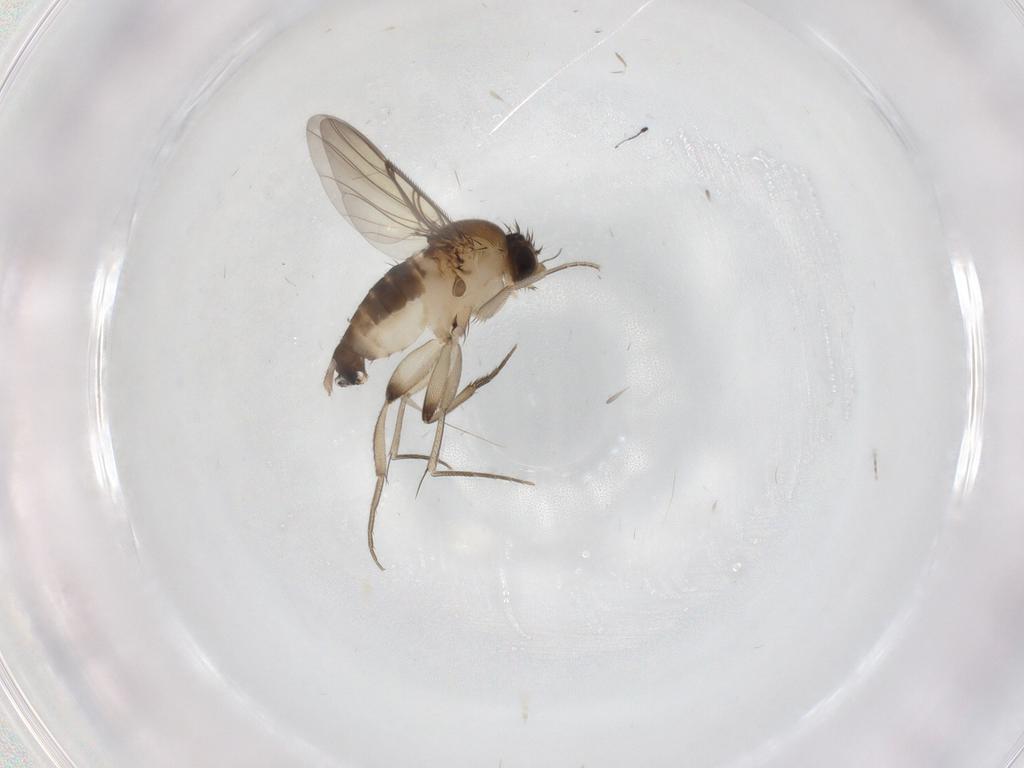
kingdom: Animalia
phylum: Arthropoda
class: Insecta
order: Diptera
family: Phoridae
